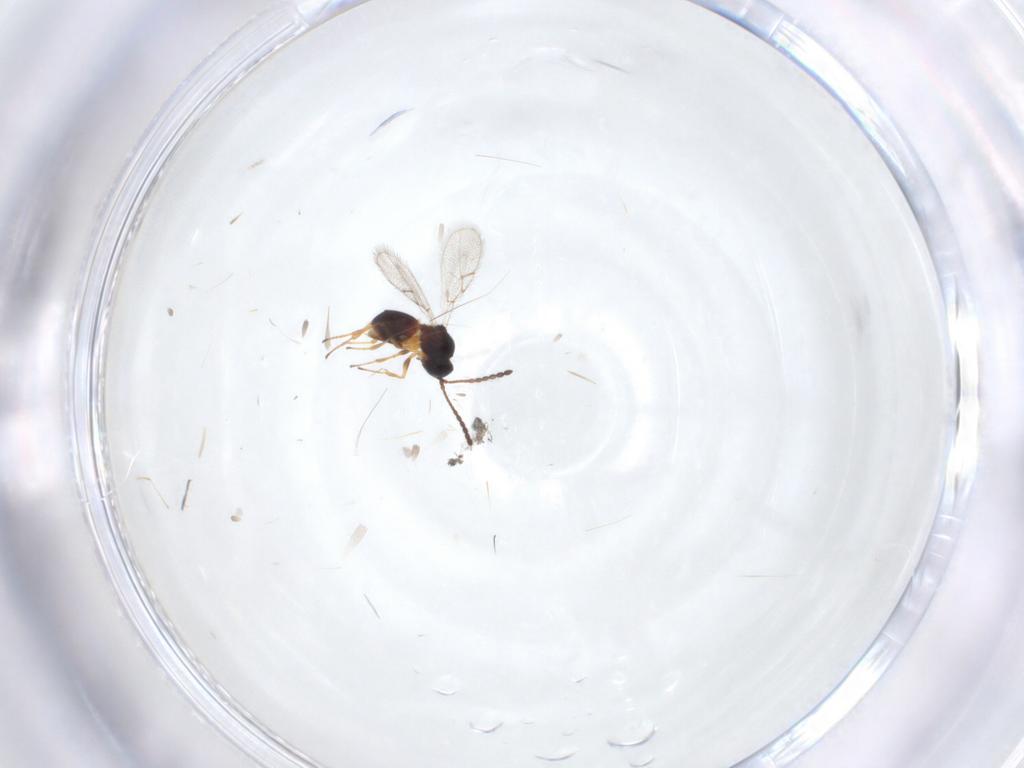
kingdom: Animalia
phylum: Arthropoda
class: Insecta
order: Hymenoptera
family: Figitidae
